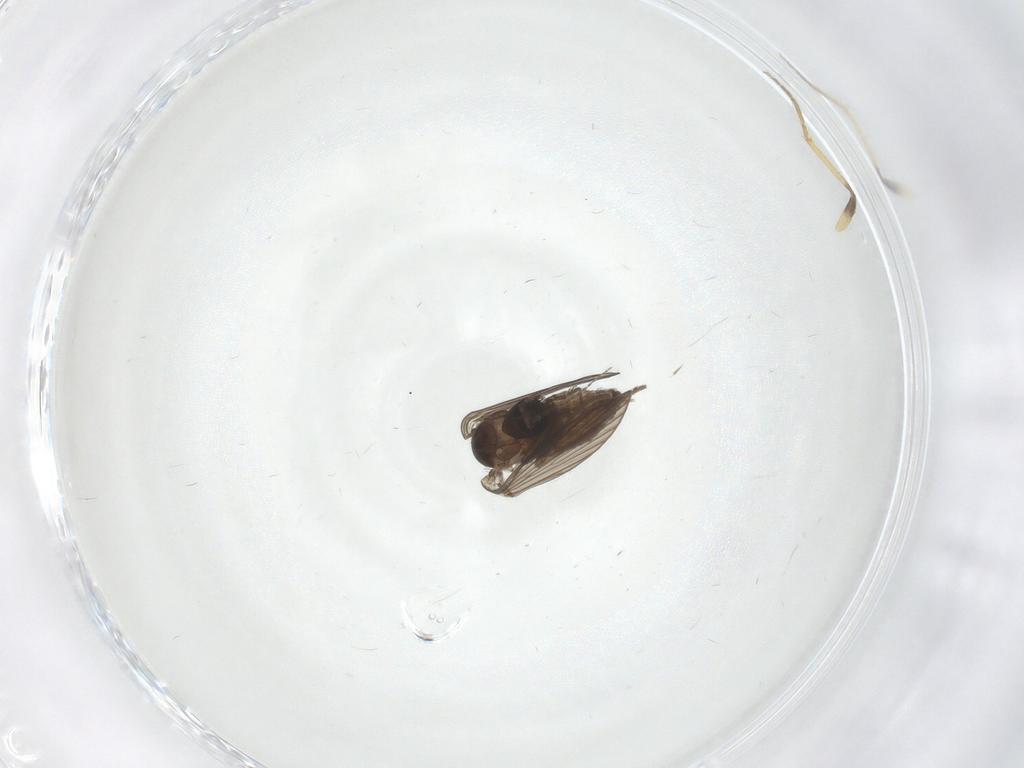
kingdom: Animalia
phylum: Arthropoda
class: Insecta
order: Diptera
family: Psychodidae
